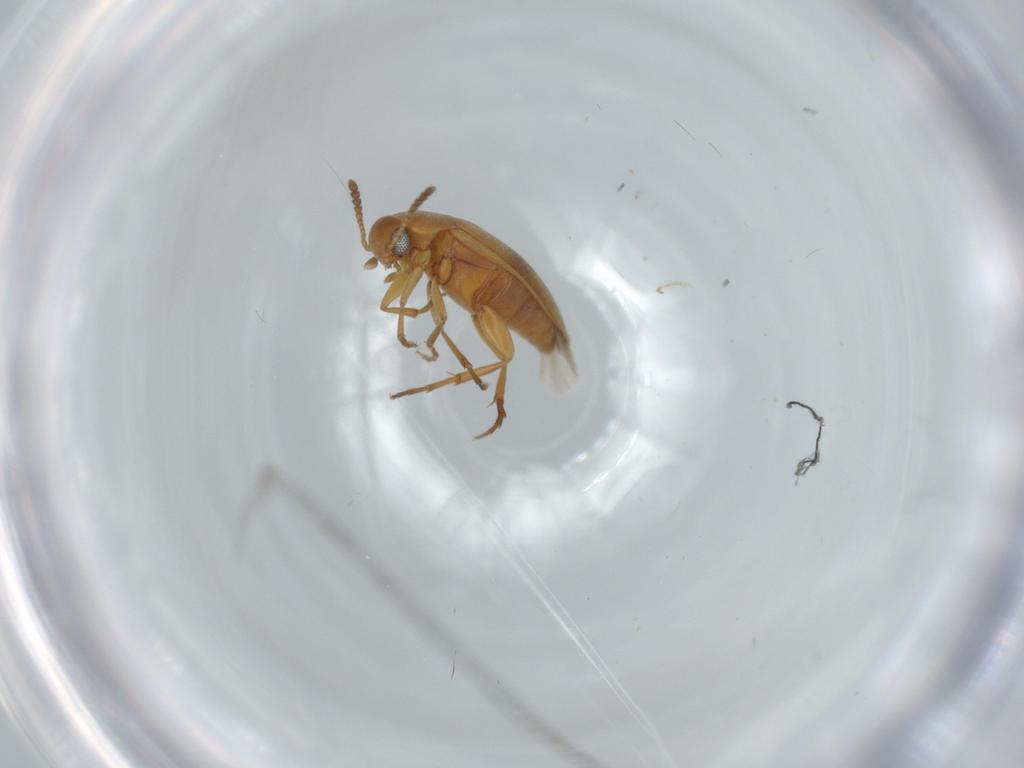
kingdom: Animalia
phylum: Arthropoda
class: Insecta
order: Coleoptera
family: Scraptiidae
